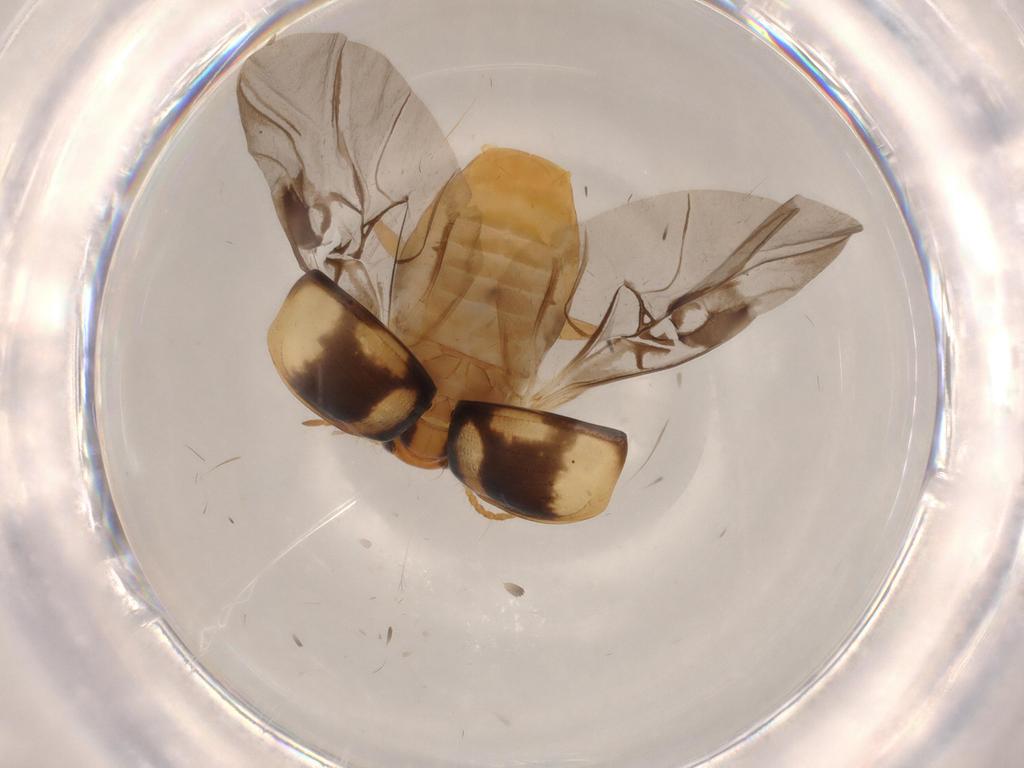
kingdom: Animalia
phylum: Arthropoda
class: Insecta
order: Coleoptera
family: Carabidae
